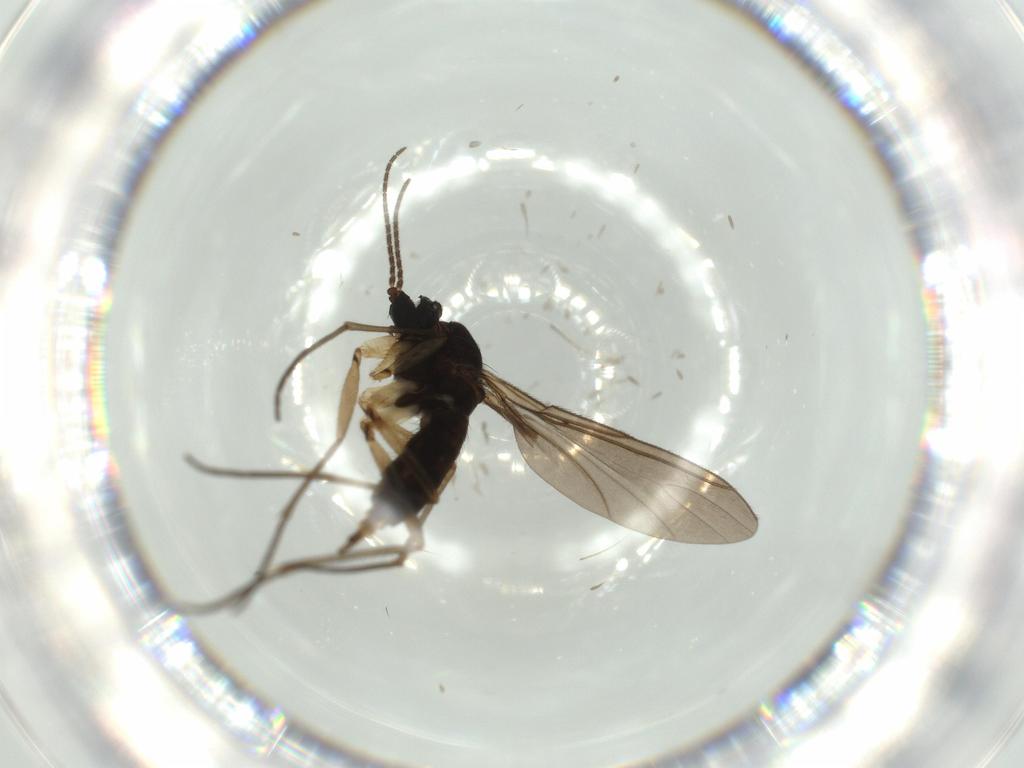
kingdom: Animalia
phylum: Arthropoda
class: Insecta
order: Diptera
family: Sciaridae
